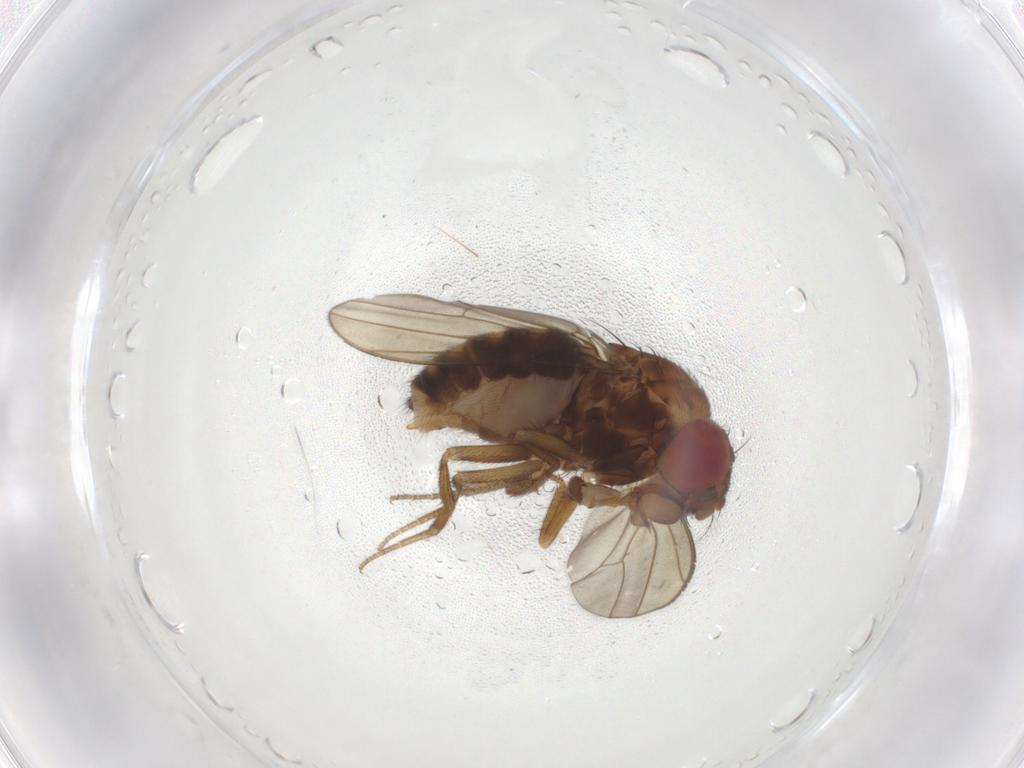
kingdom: Animalia
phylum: Arthropoda
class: Insecta
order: Diptera
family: Drosophilidae
